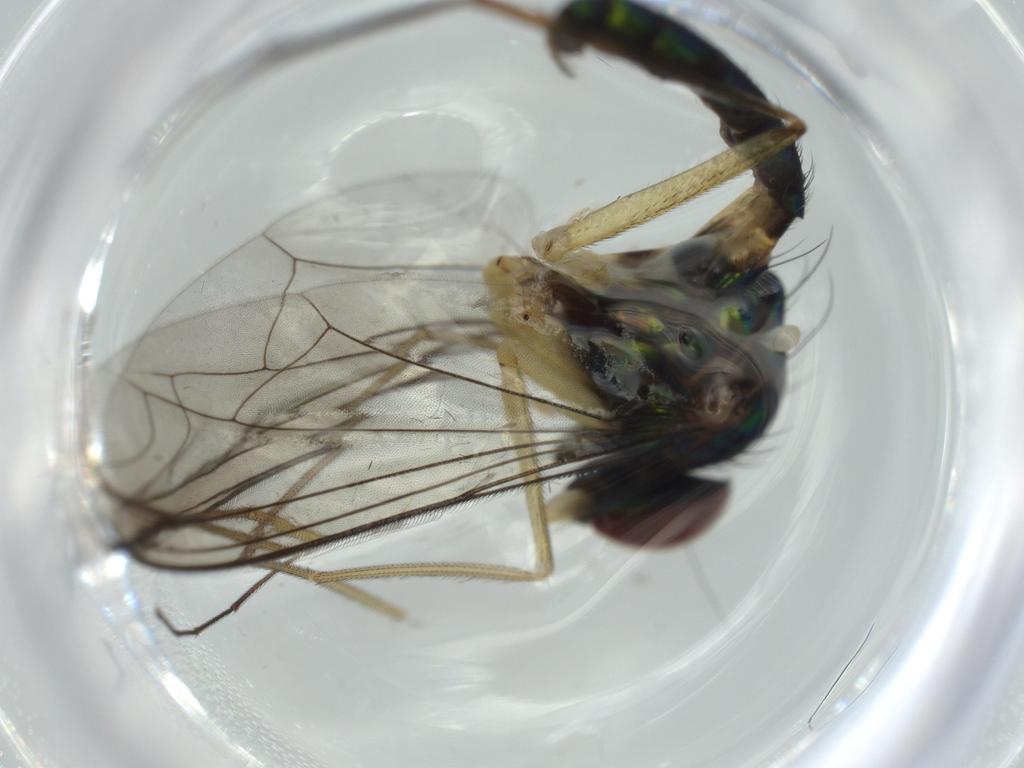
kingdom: Animalia
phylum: Arthropoda
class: Insecta
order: Diptera
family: Dolichopodidae
